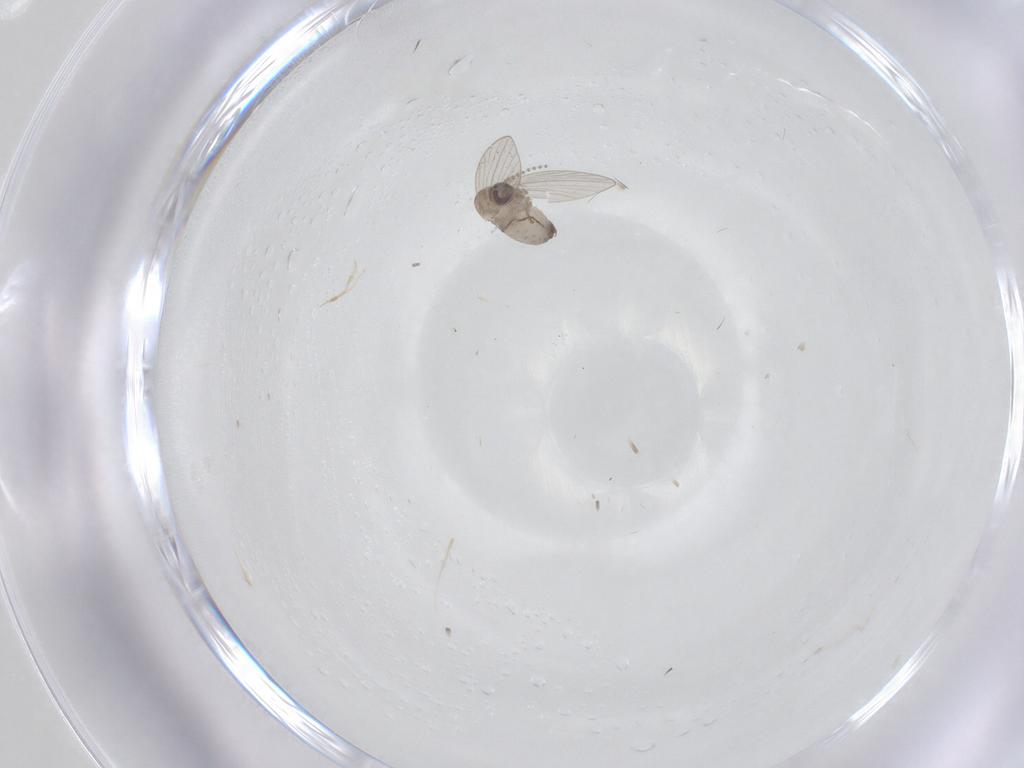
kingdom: Animalia
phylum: Arthropoda
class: Insecta
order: Diptera
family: Psychodidae
